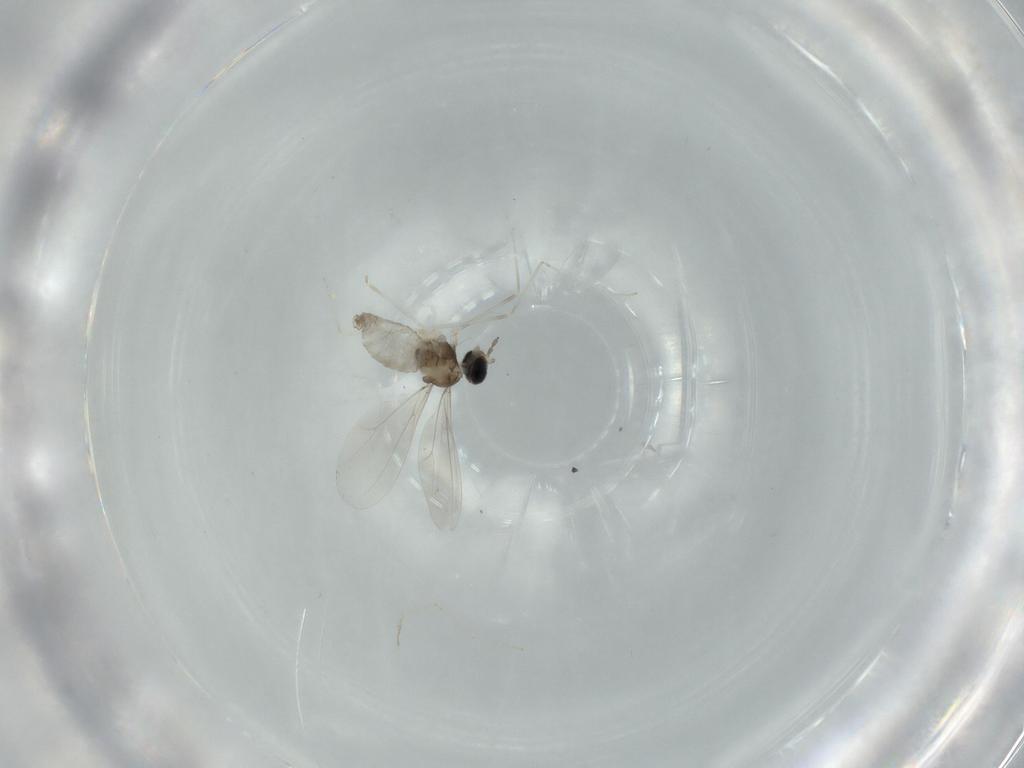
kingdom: Animalia
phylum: Arthropoda
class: Insecta
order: Diptera
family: Cecidomyiidae
